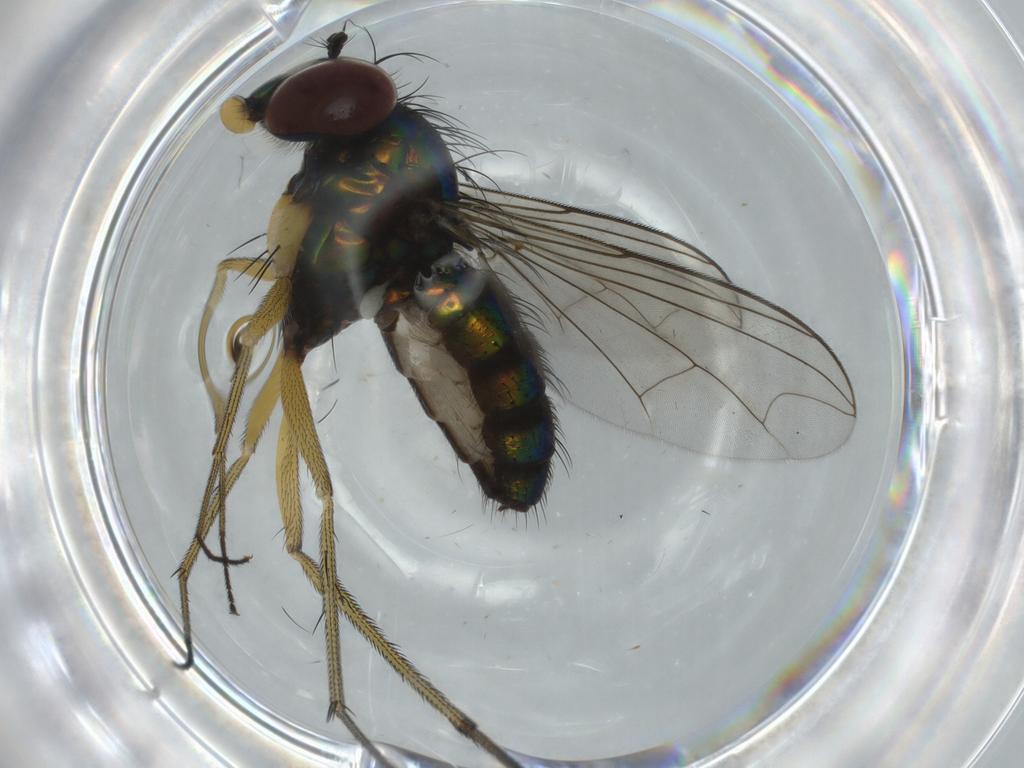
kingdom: Animalia
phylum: Arthropoda
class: Insecta
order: Diptera
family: Dolichopodidae
